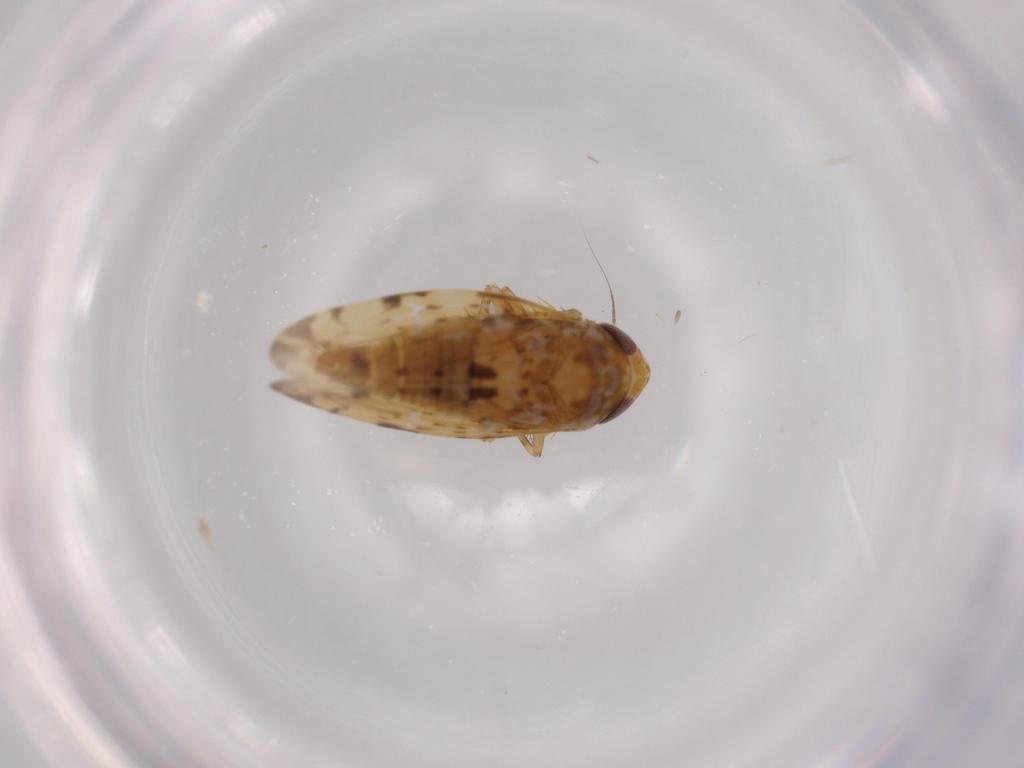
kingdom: Animalia
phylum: Arthropoda
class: Insecta
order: Hemiptera
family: Cicadellidae
